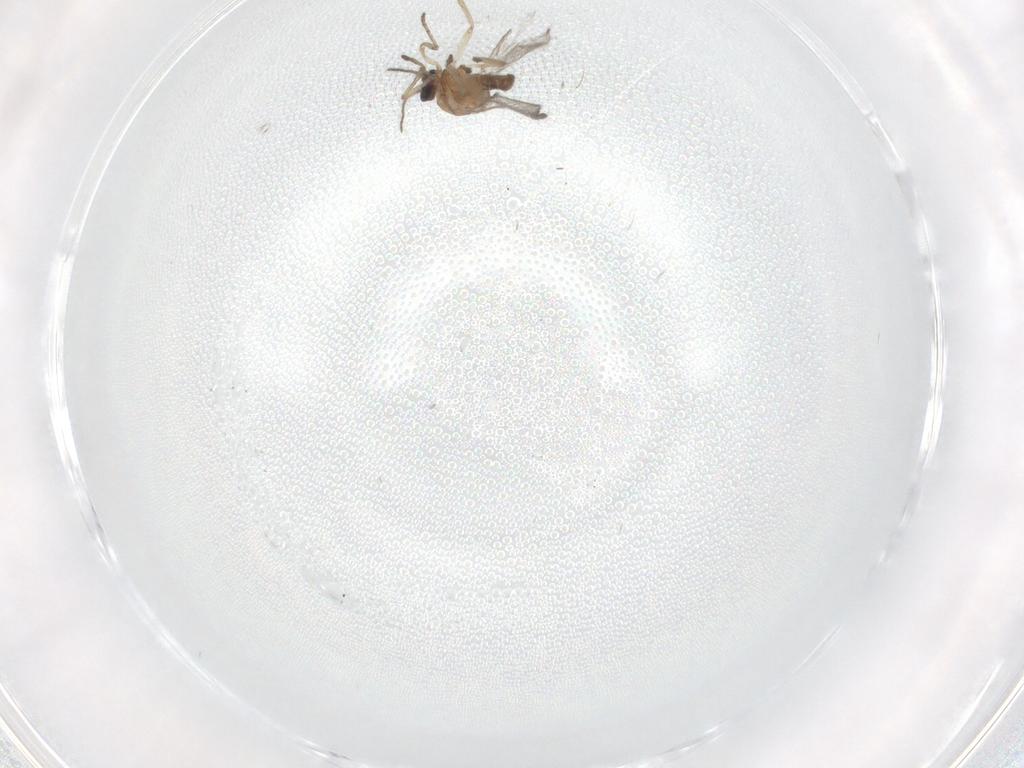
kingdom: Animalia
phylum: Arthropoda
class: Insecta
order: Diptera
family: Chironomidae
